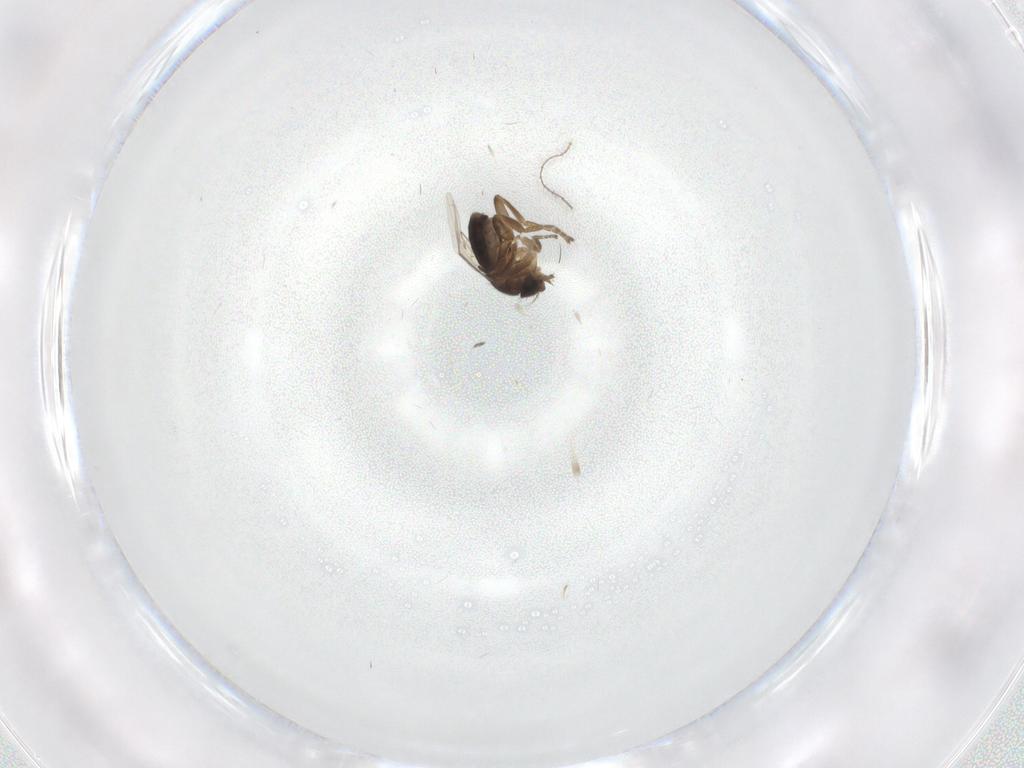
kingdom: Animalia
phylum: Arthropoda
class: Insecta
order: Diptera
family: Phoridae
